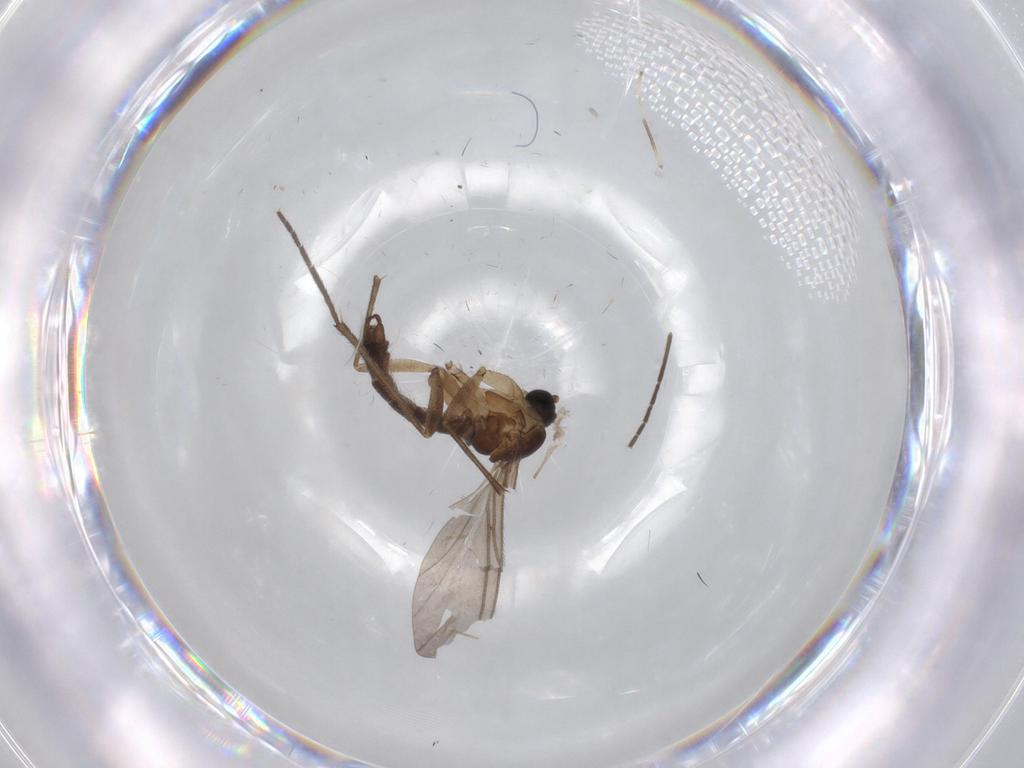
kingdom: Animalia
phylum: Arthropoda
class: Insecta
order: Diptera
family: Chironomidae
